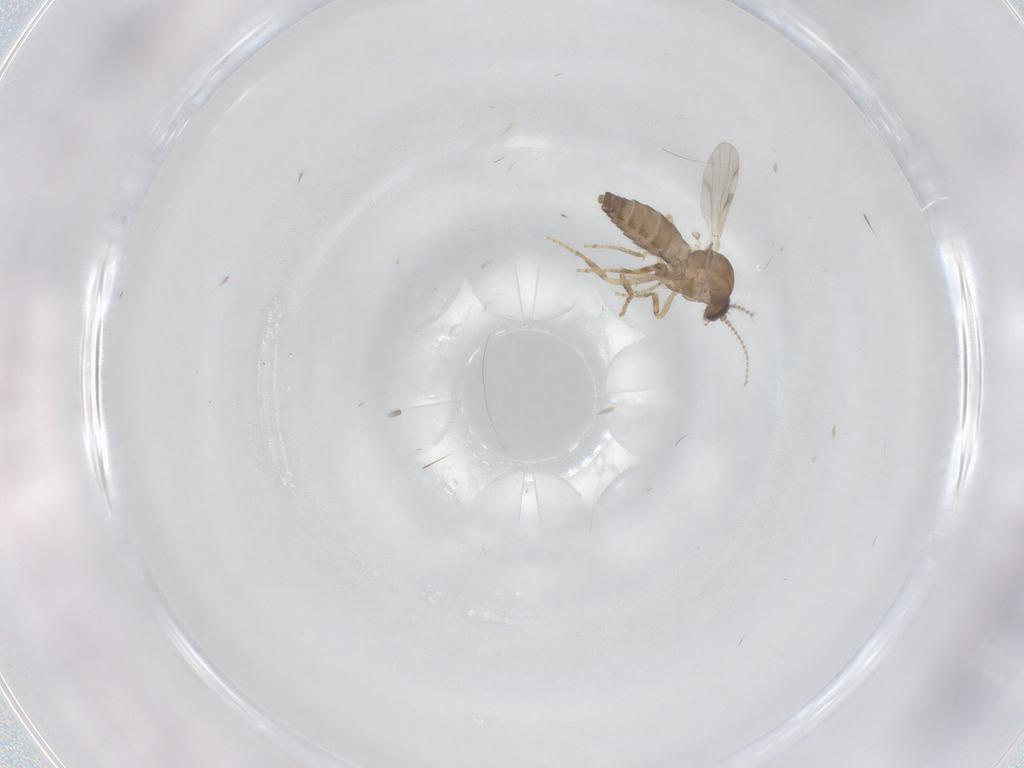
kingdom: Animalia
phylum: Arthropoda
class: Insecta
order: Diptera
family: Ceratopogonidae
